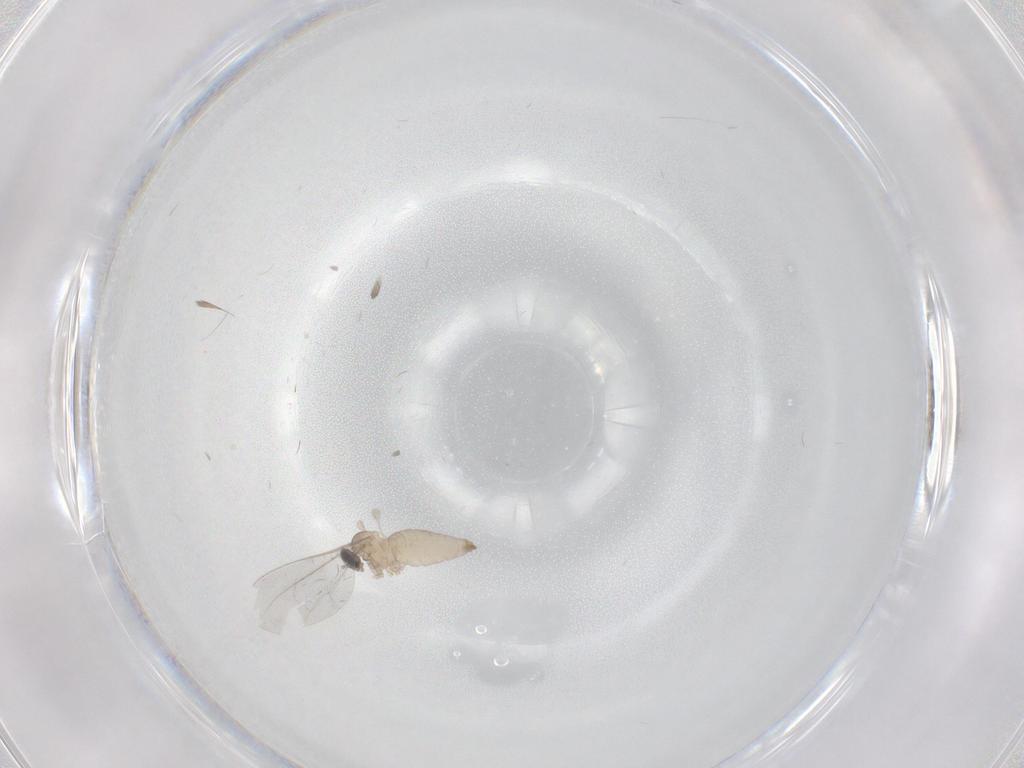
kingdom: Animalia
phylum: Arthropoda
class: Insecta
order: Diptera
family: Cecidomyiidae
